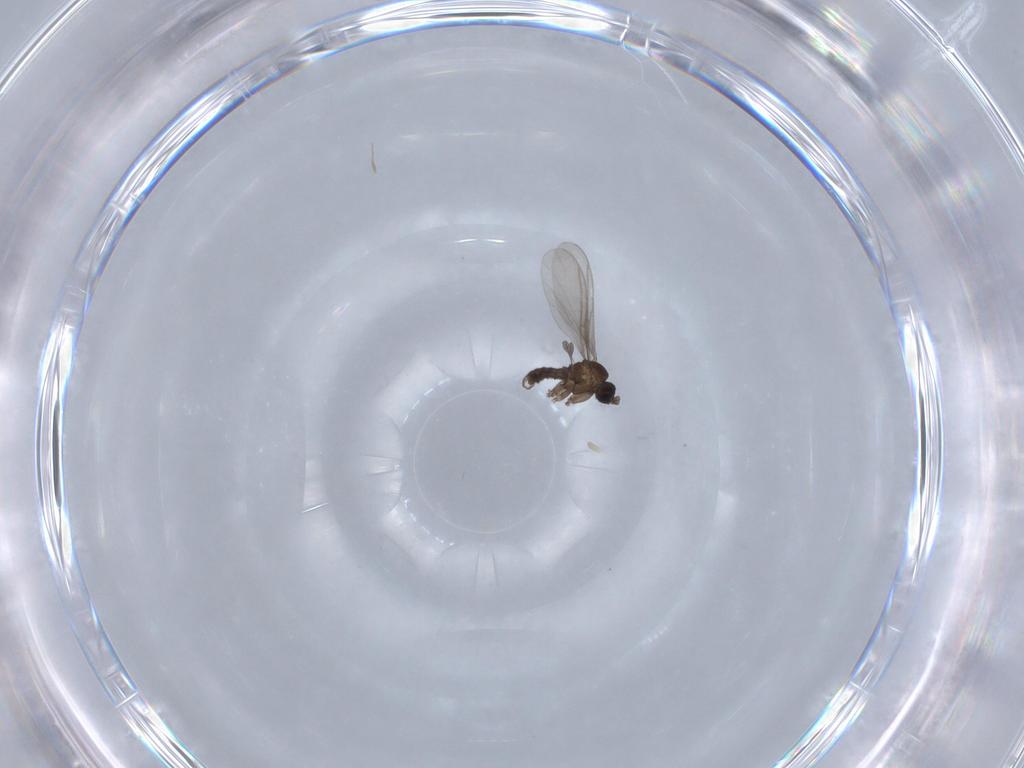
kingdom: Animalia
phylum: Arthropoda
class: Insecta
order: Diptera
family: Sciaridae
